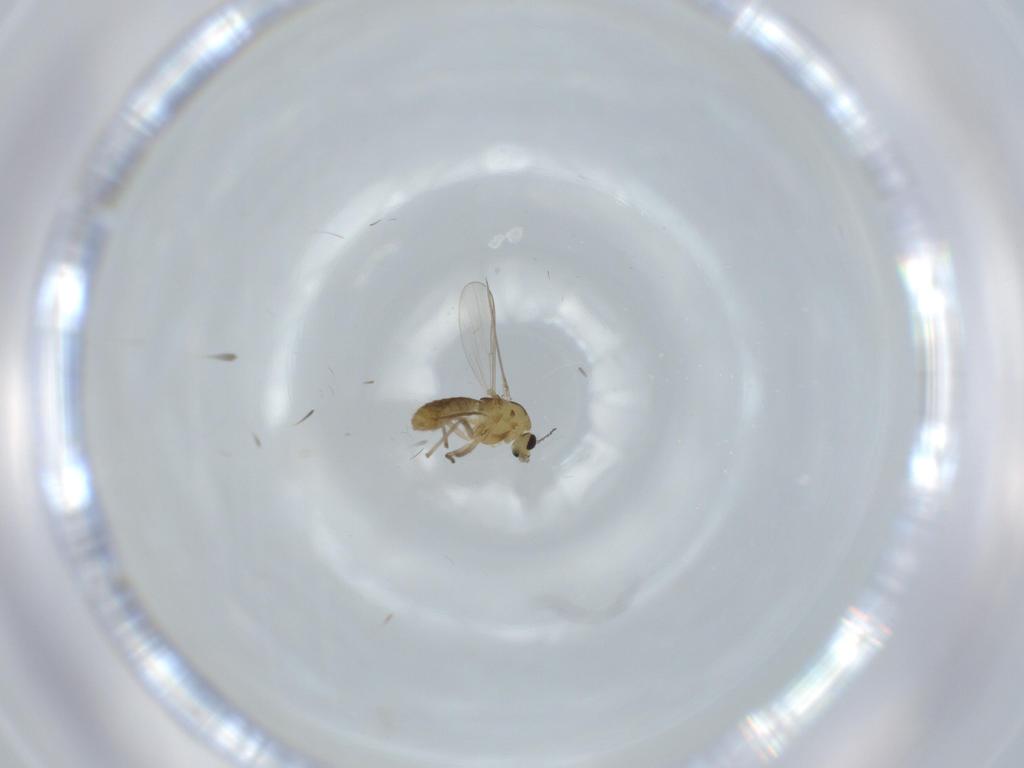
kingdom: Animalia
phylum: Arthropoda
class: Insecta
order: Diptera
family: Chironomidae
